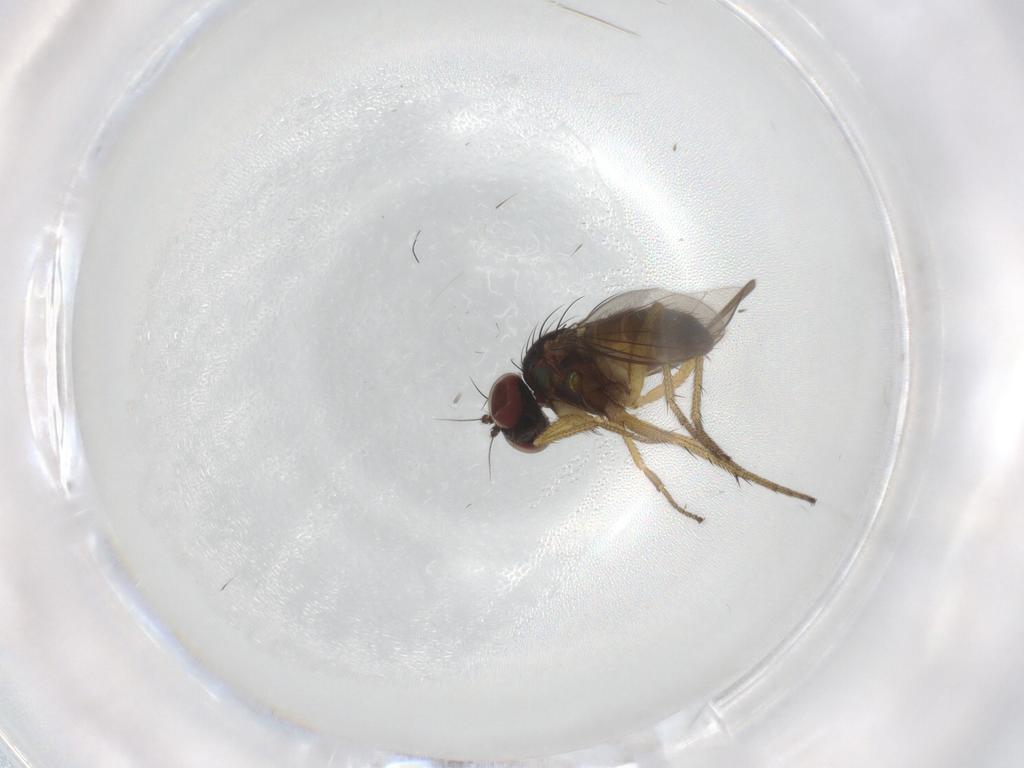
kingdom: Animalia
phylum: Arthropoda
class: Insecta
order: Diptera
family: Dolichopodidae
